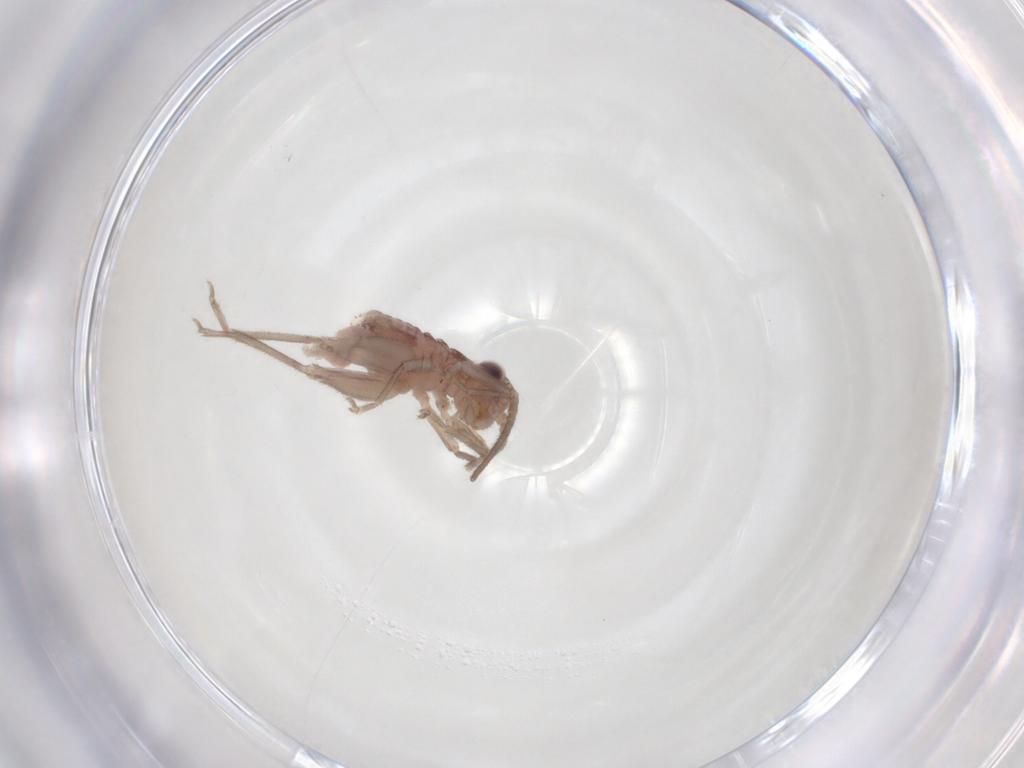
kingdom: Animalia
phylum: Arthropoda
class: Insecta
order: Orthoptera
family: Trigonidiidae
